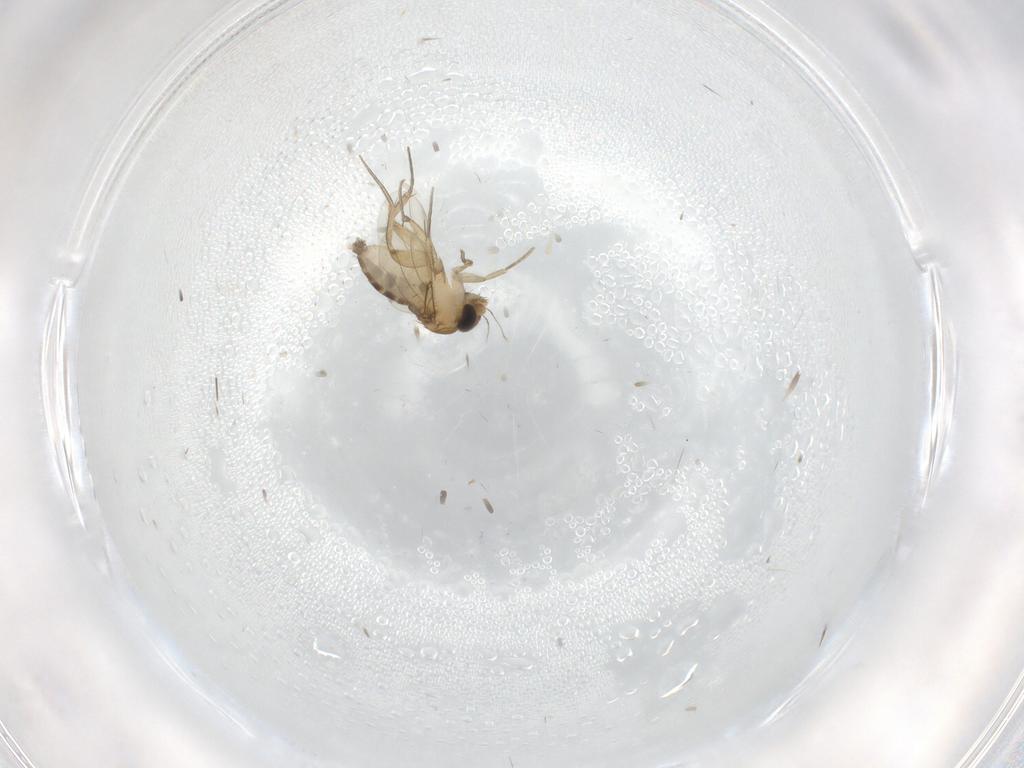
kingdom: Animalia
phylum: Arthropoda
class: Insecta
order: Diptera
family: Phoridae
